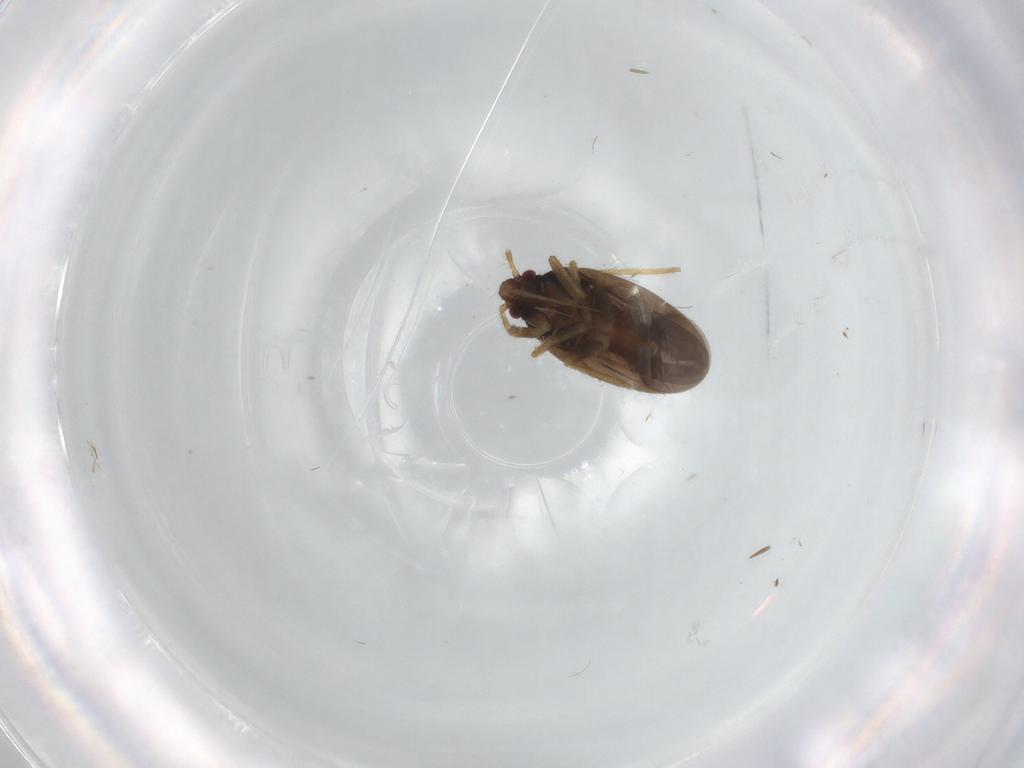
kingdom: Animalia
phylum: Arthropoda
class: Insecta
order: Hemiptera
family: Ceratocombidae
